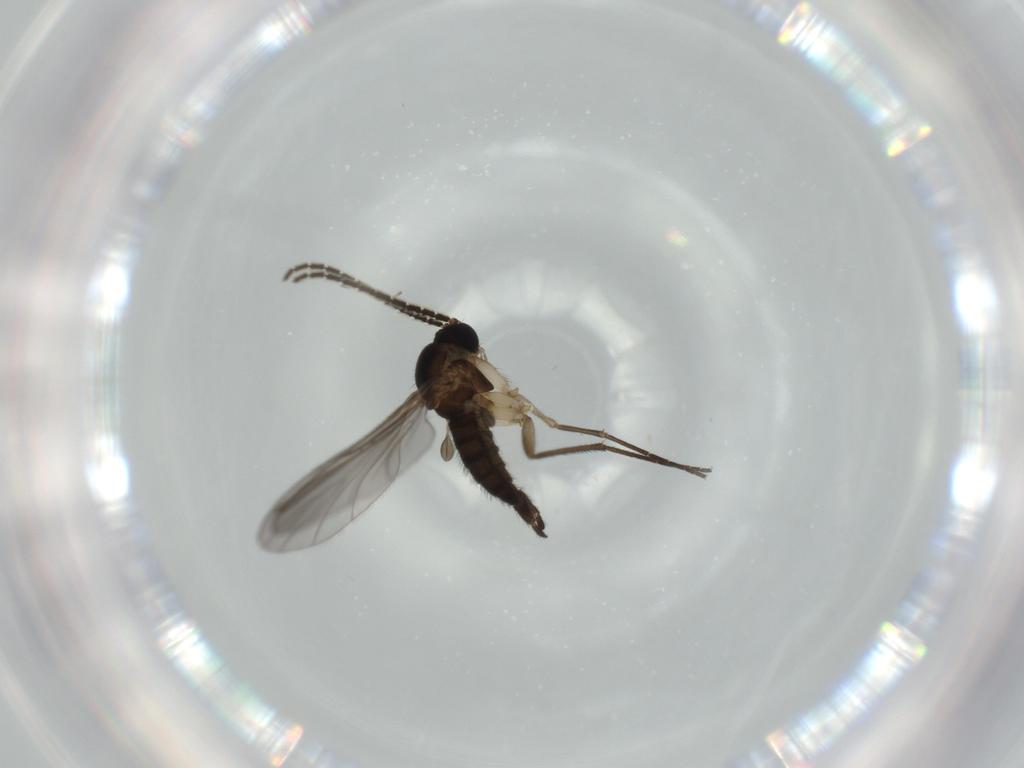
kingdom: Animalia
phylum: Arthropoda
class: Insecta
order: Diptera
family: Sciaridae
